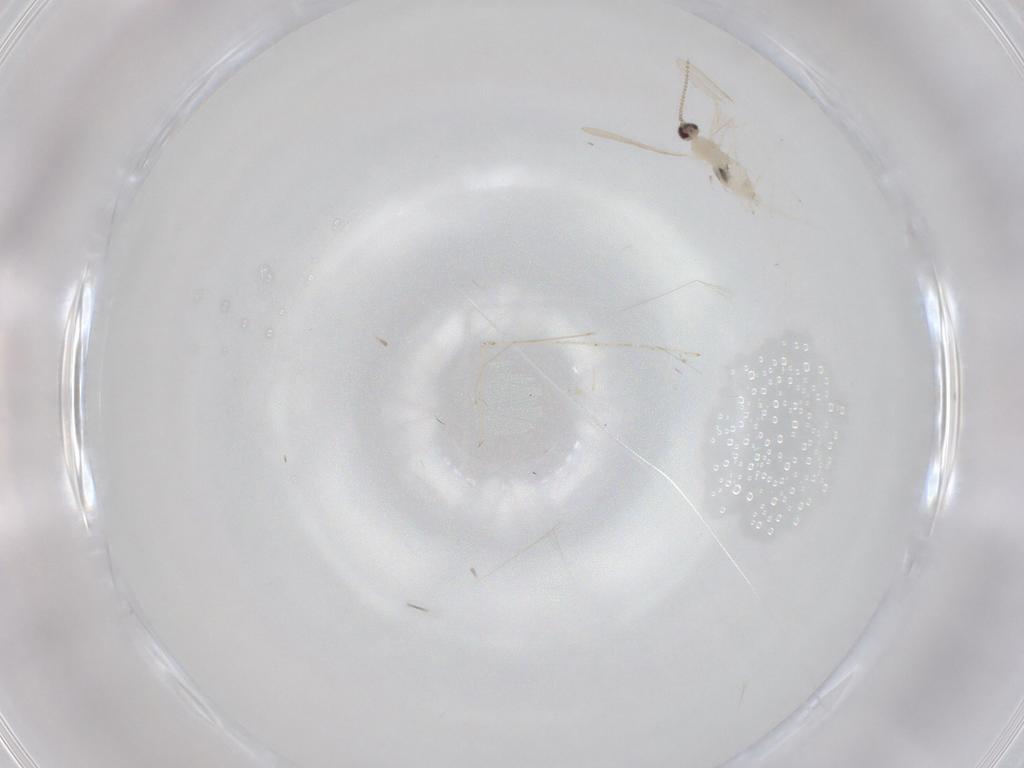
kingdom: Animalia
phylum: Arthropoda
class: Insecta
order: Diptera
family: Cecidomyiidae
